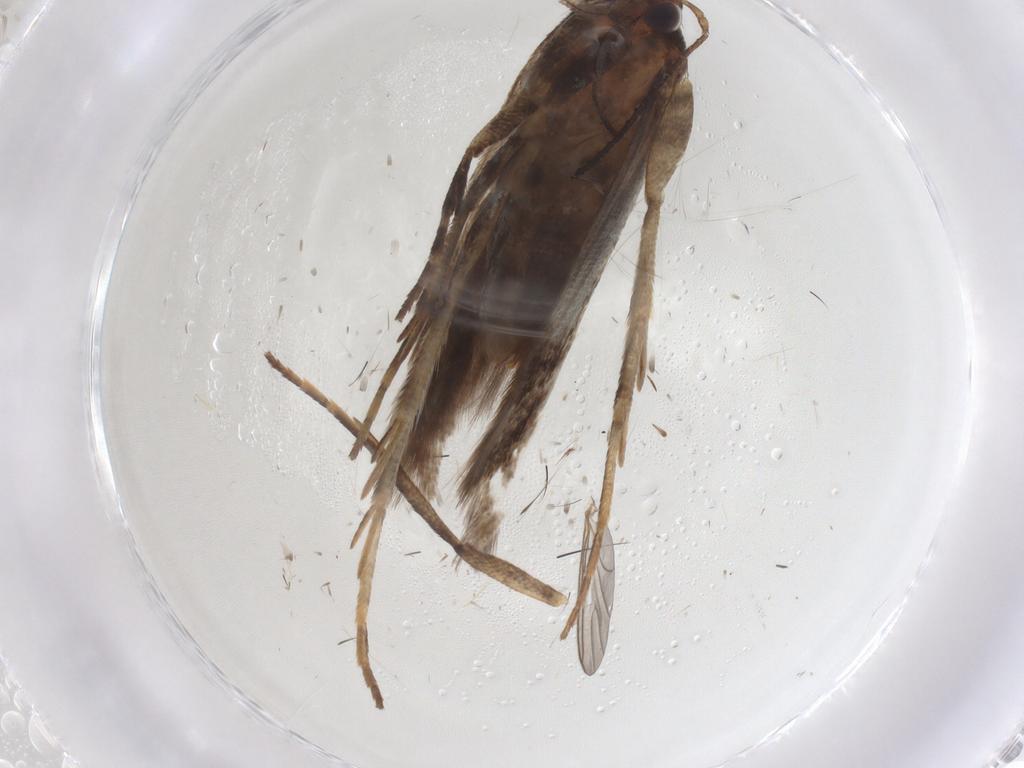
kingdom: Animalia
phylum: Arthropoda
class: Insecta
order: Lepidoptera
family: Gelechiidae
